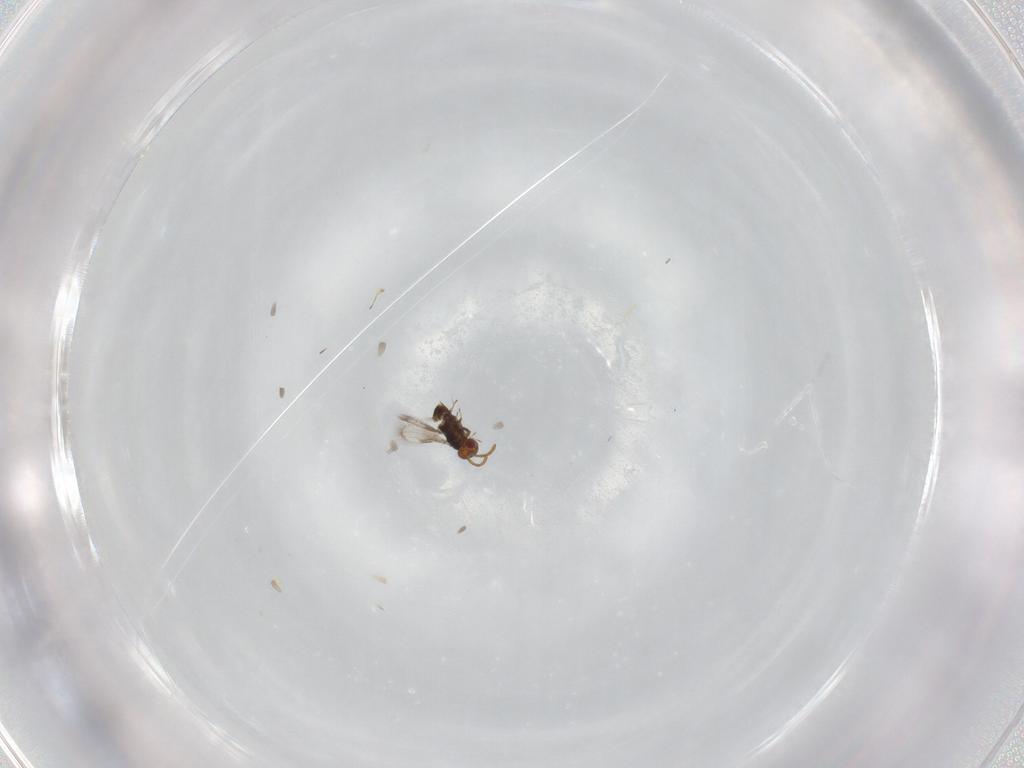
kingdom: Animalia
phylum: Arthropoda
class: Insecta
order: Hymenoptera
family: Azotidae
